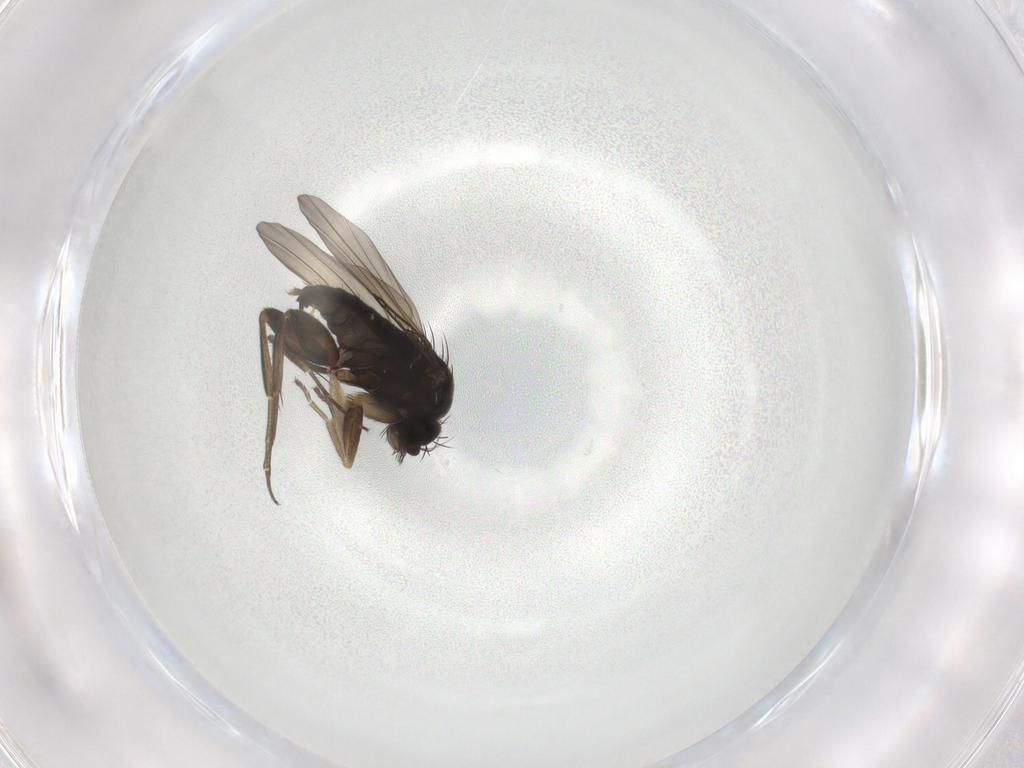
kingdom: Animalia
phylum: Arthropoda
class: Insecta
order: Diptera
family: Phoridae
